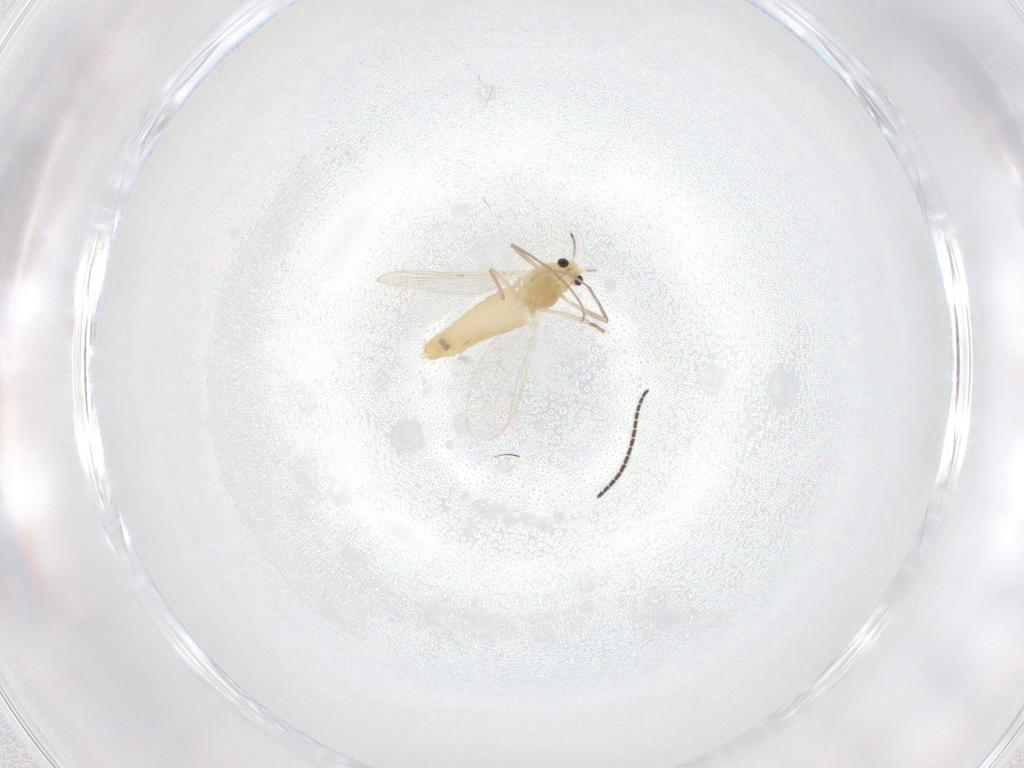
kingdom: Animalia
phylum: Arthropoda
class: Insecta
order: Diptera
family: Chironomidae
